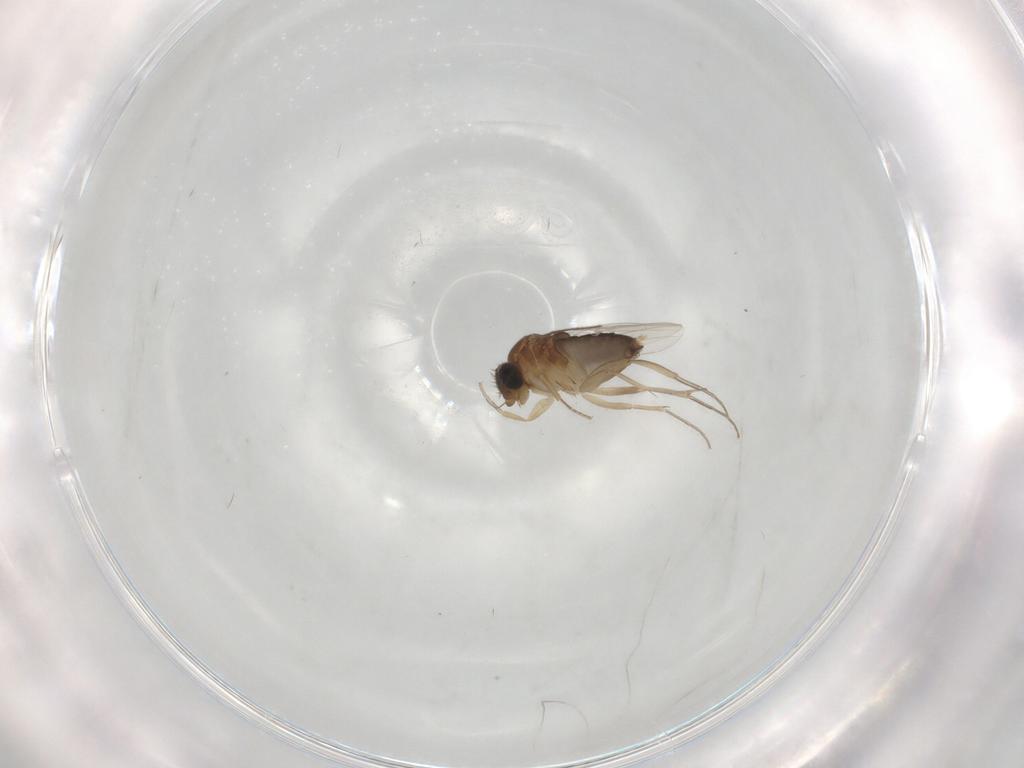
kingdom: Animalia
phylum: Arthropoda
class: Insecta
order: Diptera
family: Phoridae
